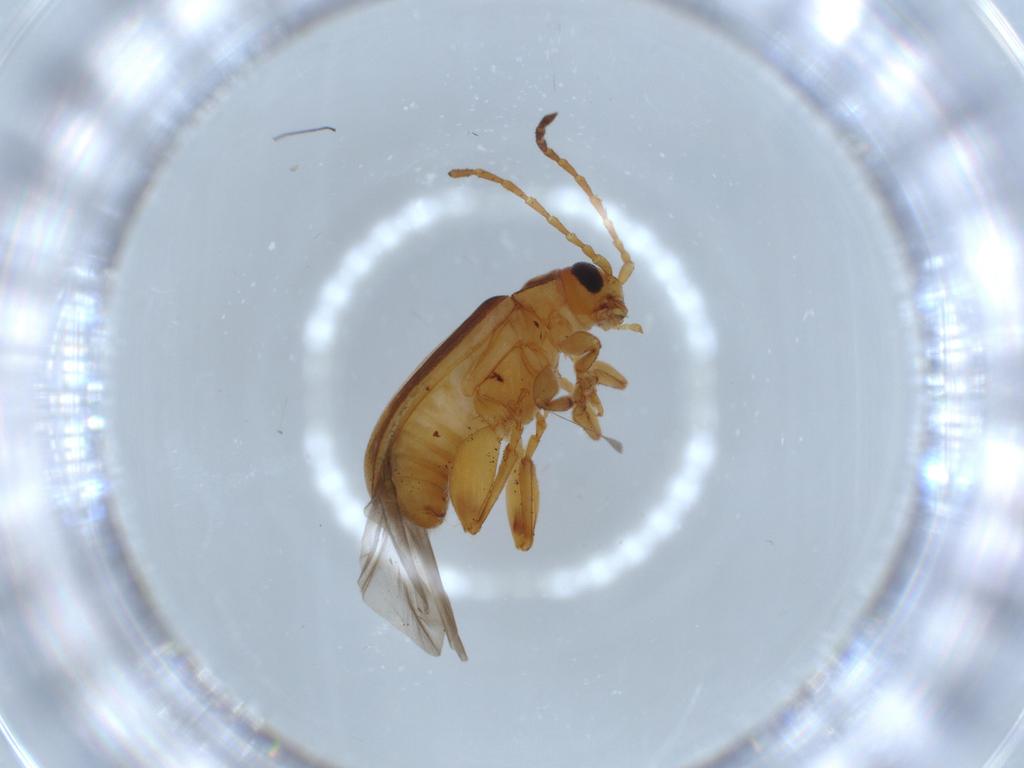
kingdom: Animalia
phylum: Arthropoda
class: Insecta
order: Coleoptera
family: Chrysomelidae
